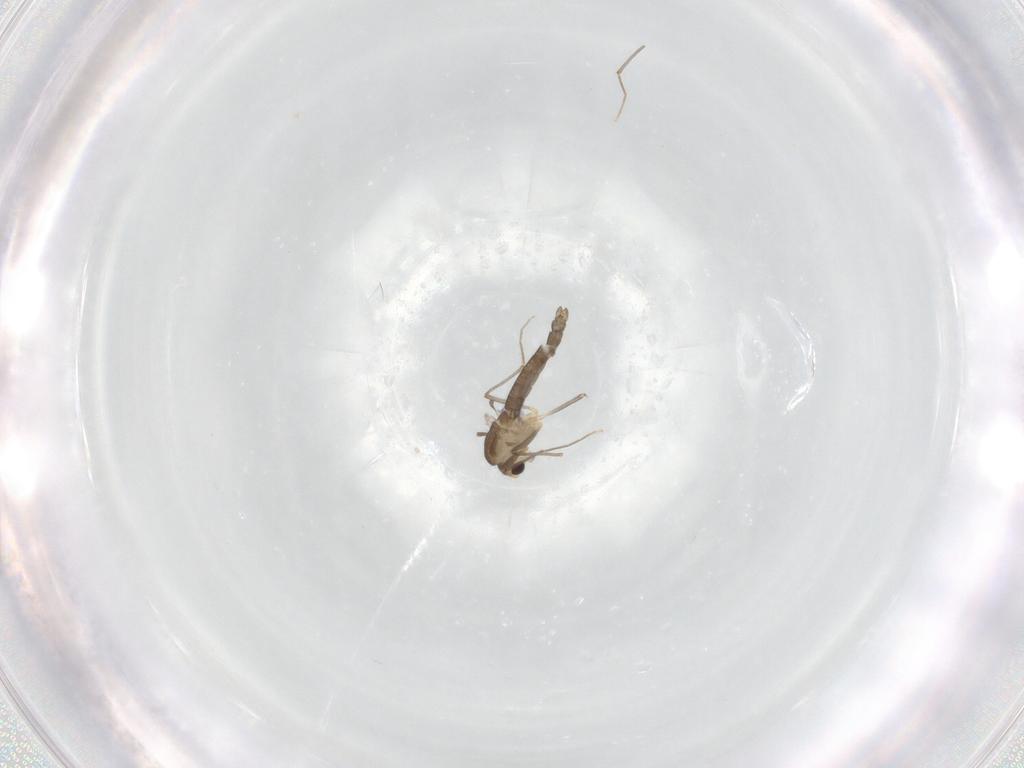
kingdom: Animalia
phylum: Arthropoda
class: Insecta
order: Diptera
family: Chironomidae
